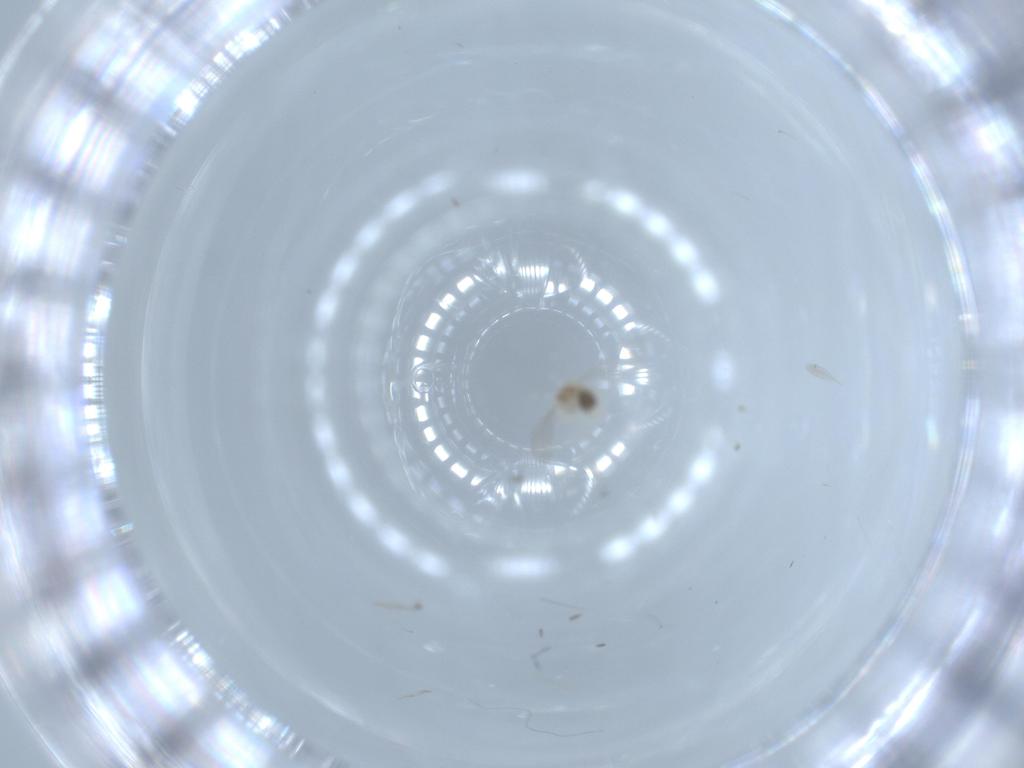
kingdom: Animalia
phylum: Arthropoda
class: Insecta
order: Diptera
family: Cecidomyiidae
